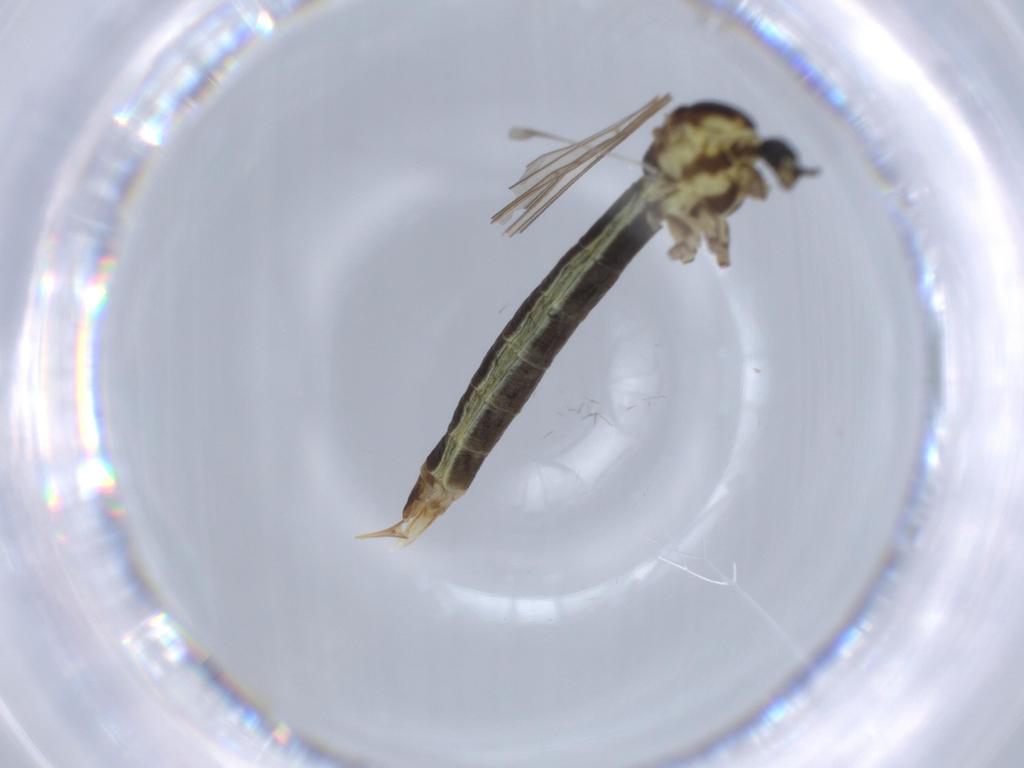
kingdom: Animalia
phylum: Arthropoda
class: Insecta
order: Diptera
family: Limoniidae
